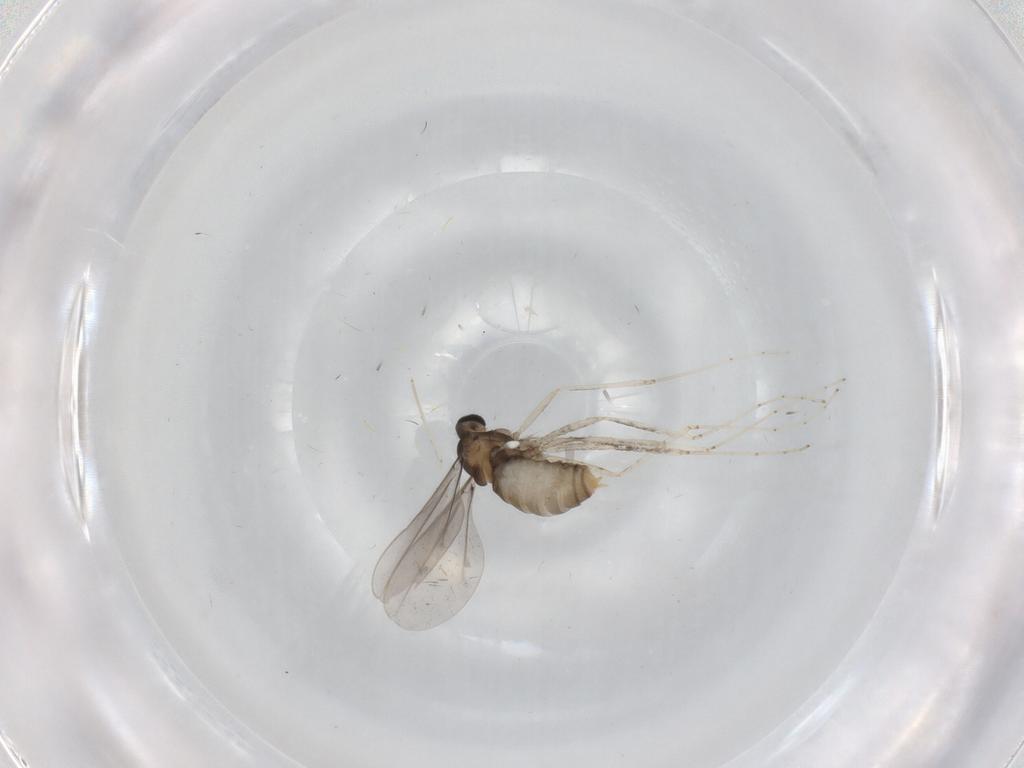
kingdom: Animalia
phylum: Arthropoda
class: Insecta
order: Diptera
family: Cecidomyiidae
